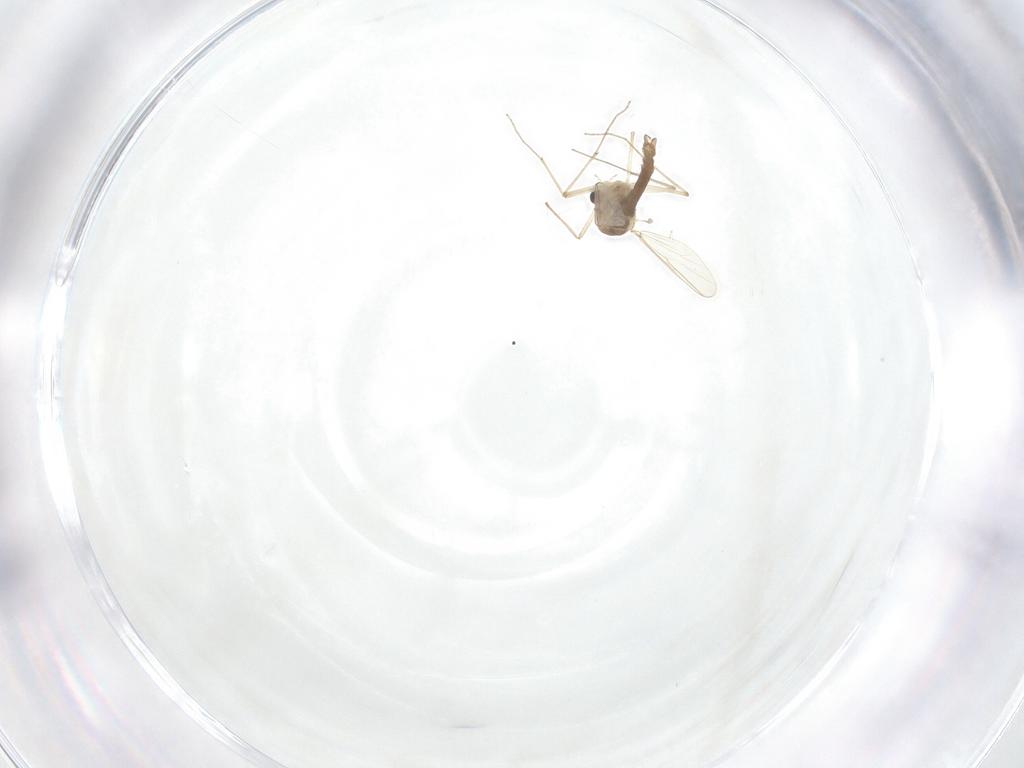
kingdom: Animalia
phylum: Arthropoda
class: Insecta
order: Diptera
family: Chironomidae
